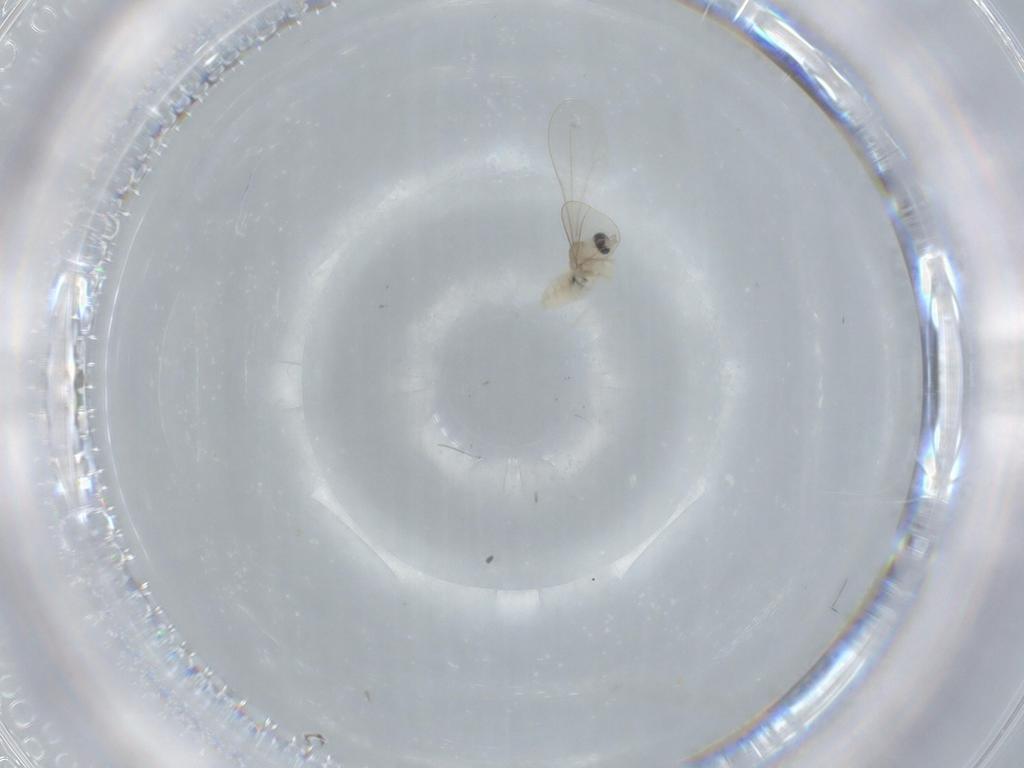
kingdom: Animalia
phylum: Arthropoda
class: Insecta
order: Diptera
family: Cecidomyiidae
